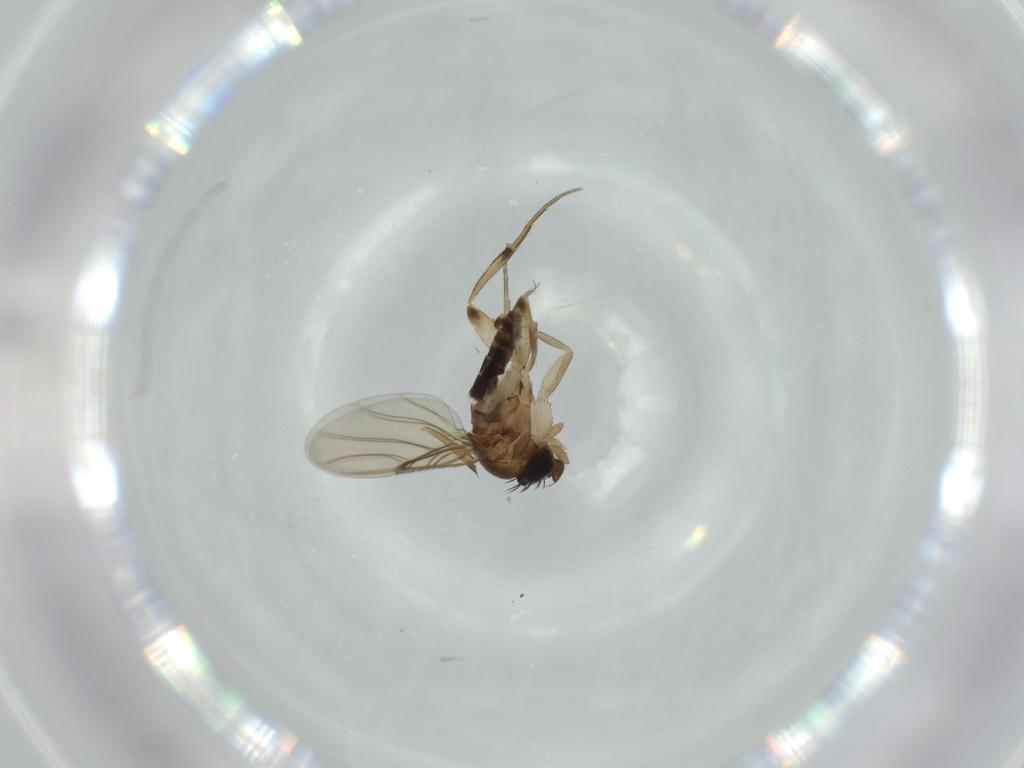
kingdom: Animalia
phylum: Arthropoda
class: Insecta
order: Diptera
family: Phoridae
